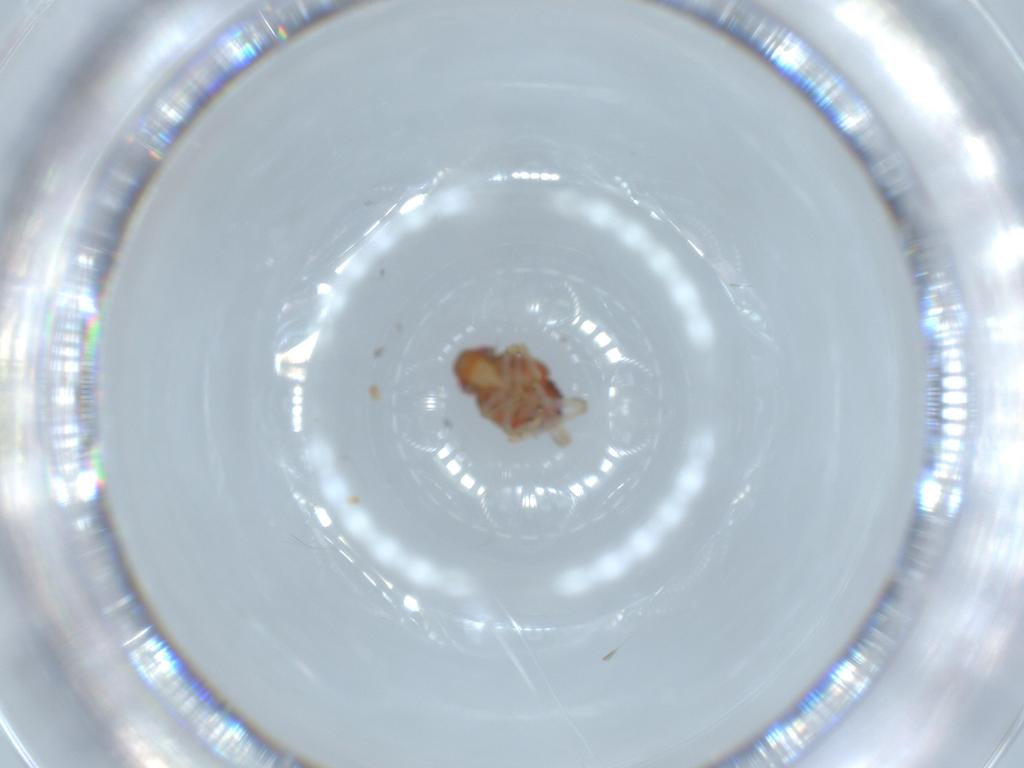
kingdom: Animalia
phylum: Arthropoda
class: Insecta
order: Hemiptera
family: Issidae
